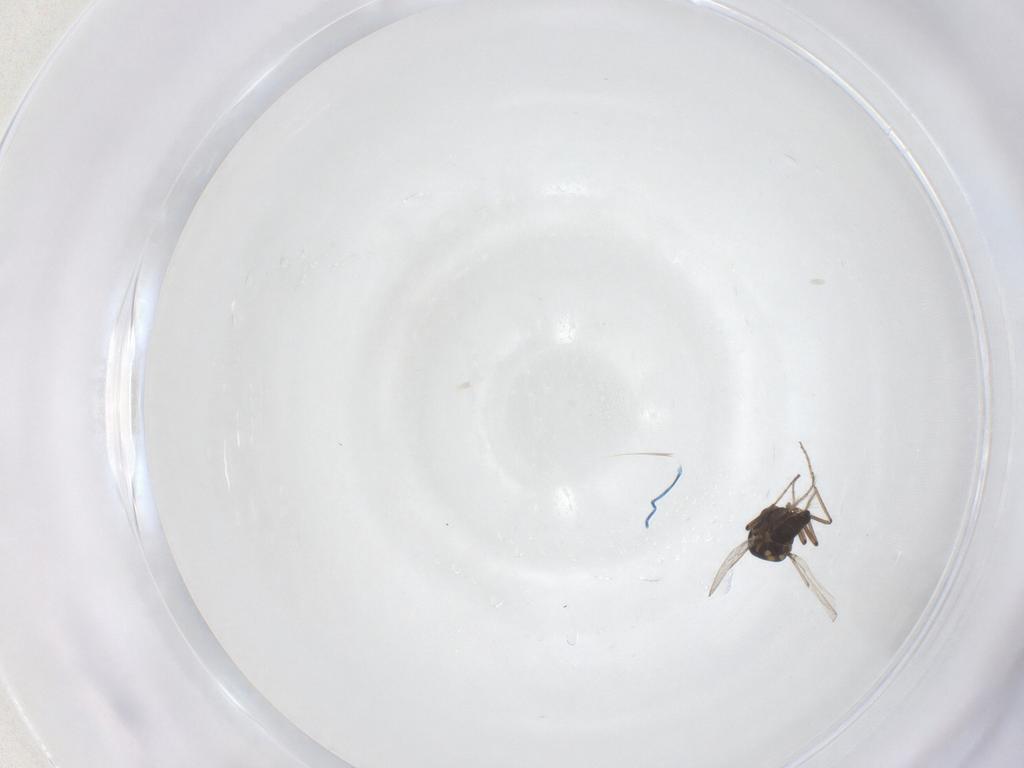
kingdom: Animalia
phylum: Arthropoda
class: Insecta
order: Diptera
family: Ceratopogonidae
